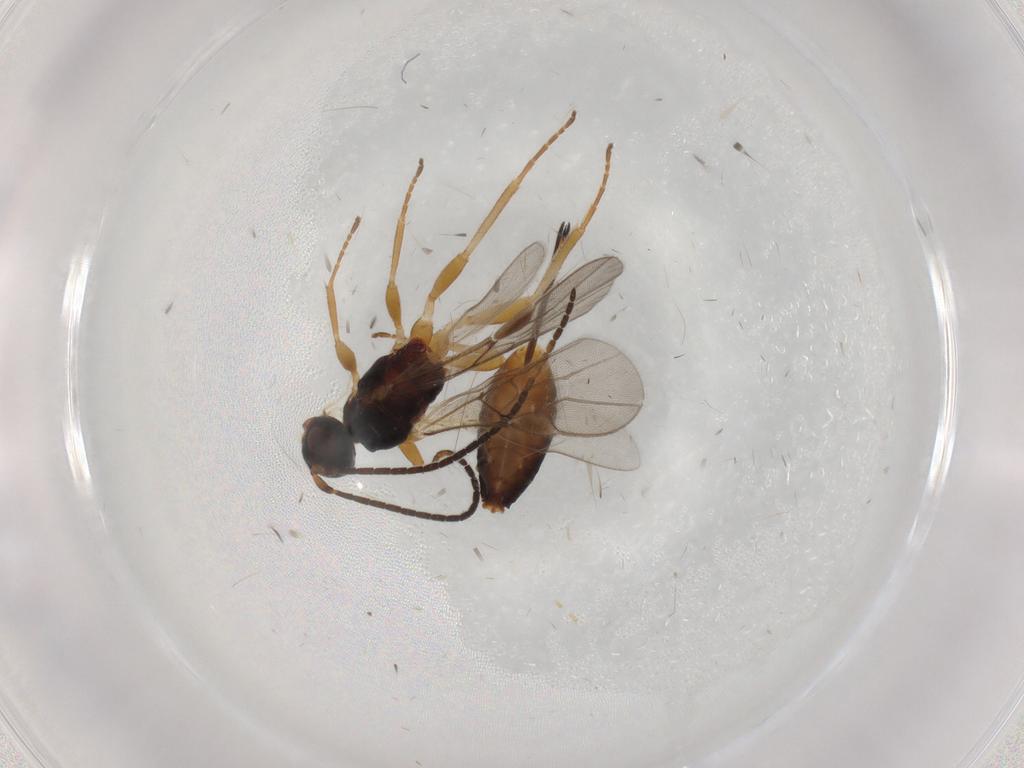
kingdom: Animalia
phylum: Arthropoda
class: Insecta
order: Hymenoptera
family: Braconidae
